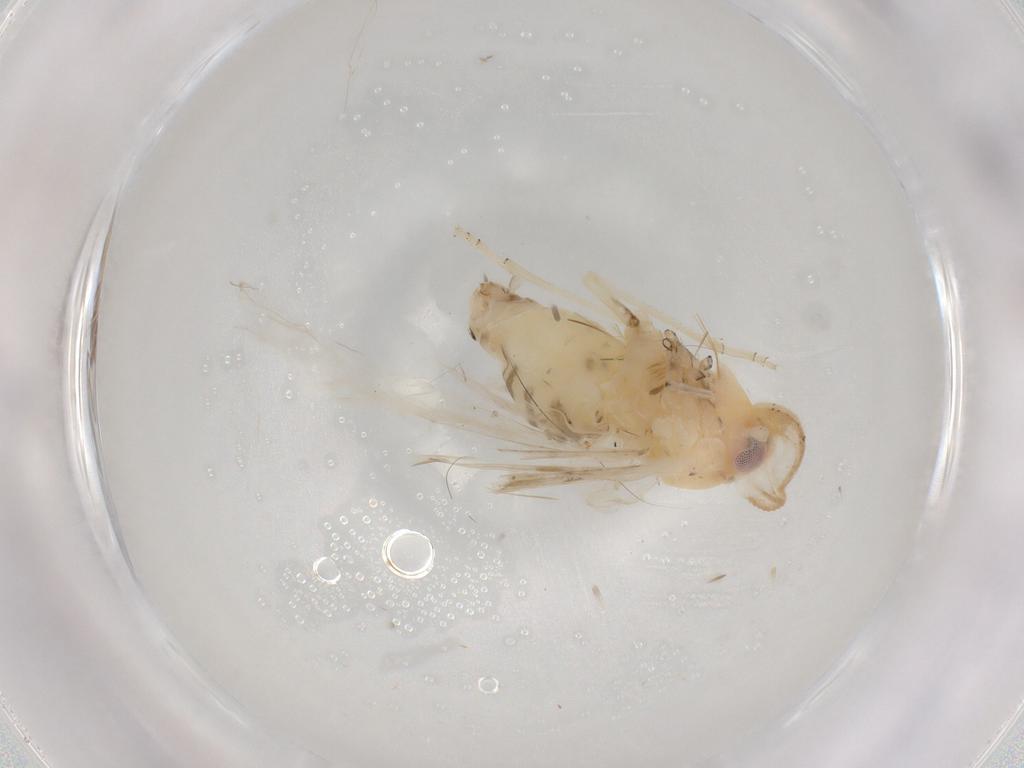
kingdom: Animalia
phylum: Arthropoda
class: Insecta
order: Hemiptera
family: Derbidae
